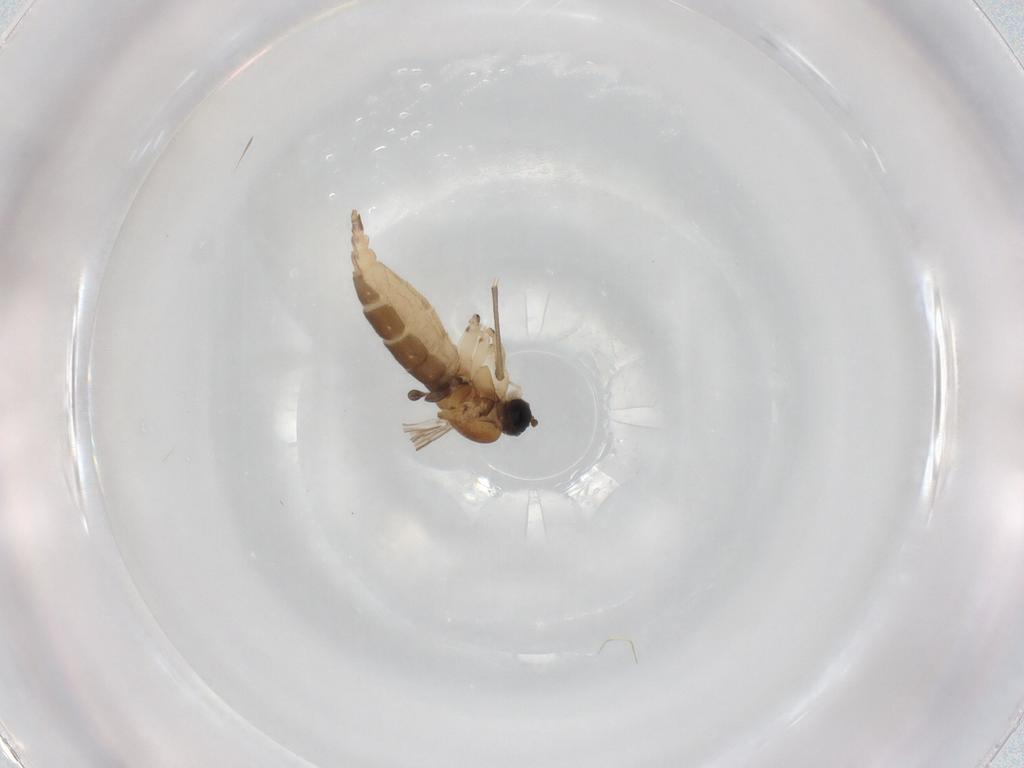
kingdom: Animalia
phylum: Arthropoda
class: Insecta
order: Diptera
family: Sciaridae
